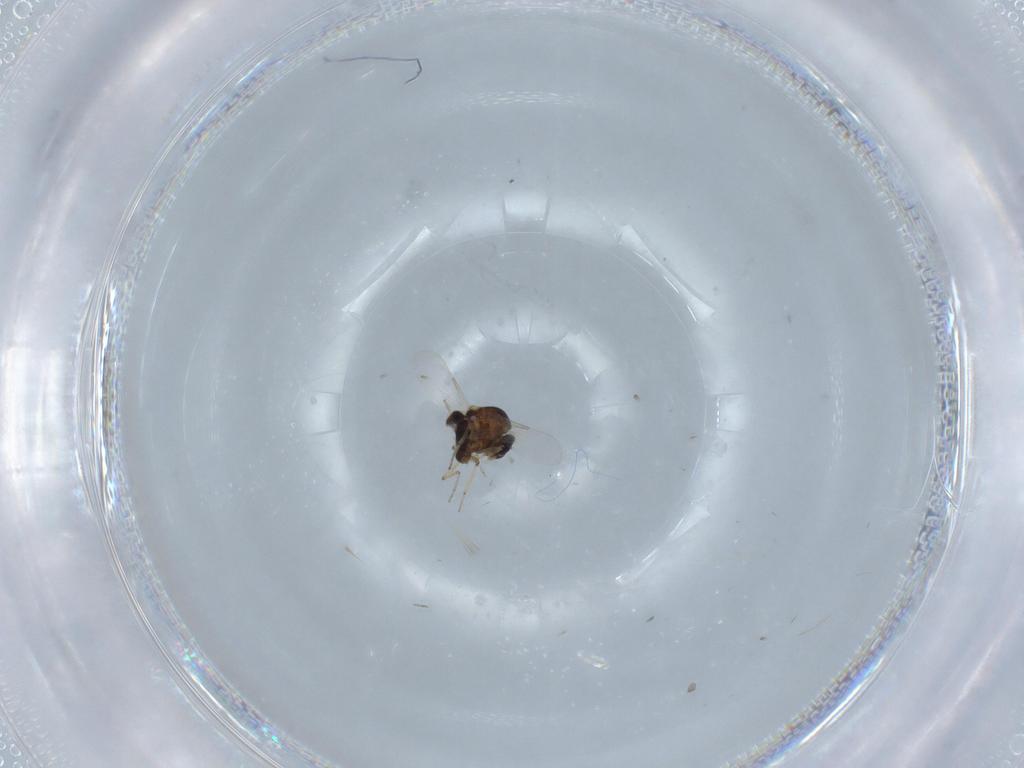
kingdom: Animalia
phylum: Arthropoda
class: Insecta
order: Diptera
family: Ceratopogonidae
